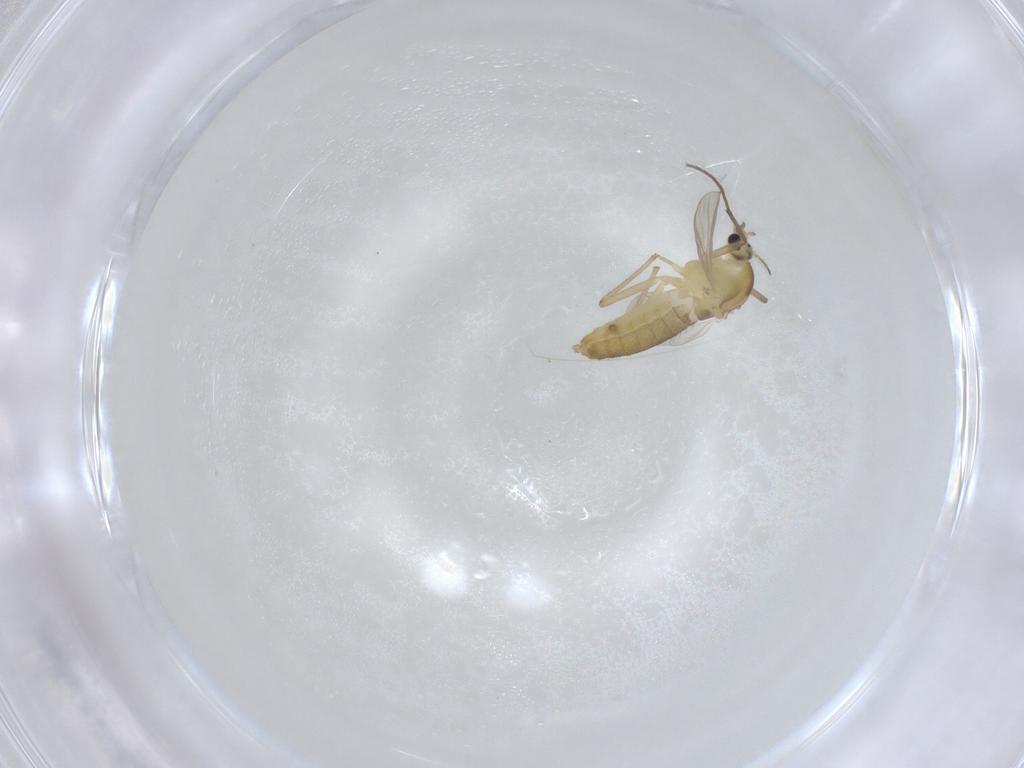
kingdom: Animalia
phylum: Arthropoda
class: Insecta
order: Diptera
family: Chironomidae
